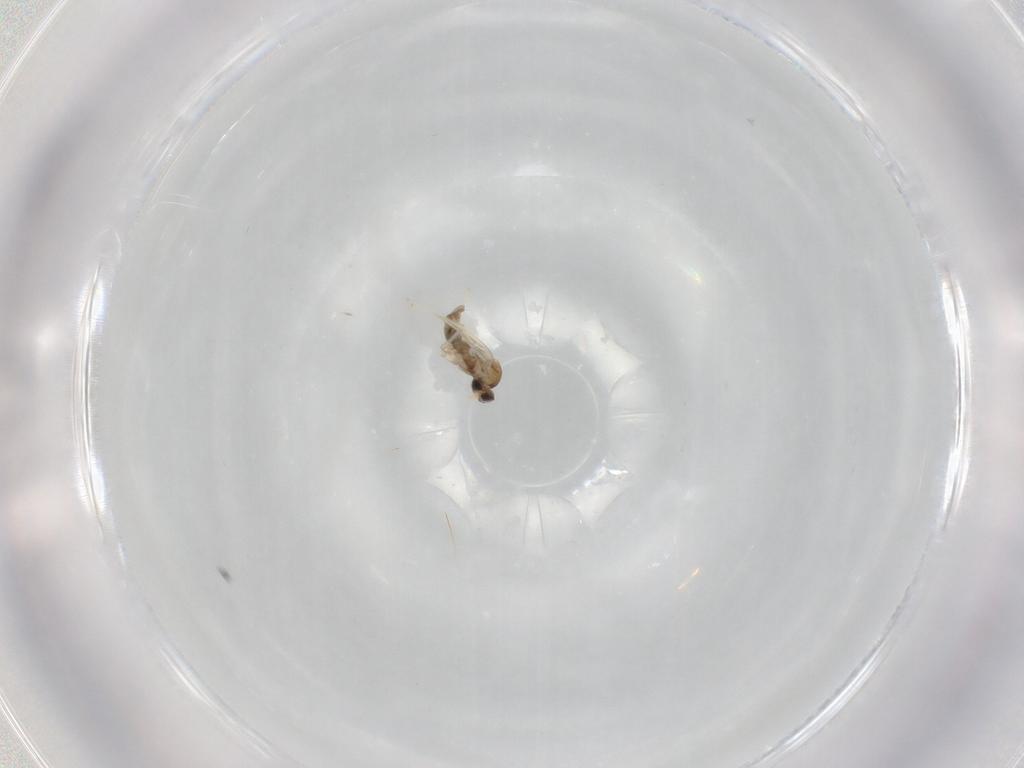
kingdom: Animalia
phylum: Arthropoda
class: Insecta
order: Diptera
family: Cecidomyiidae
